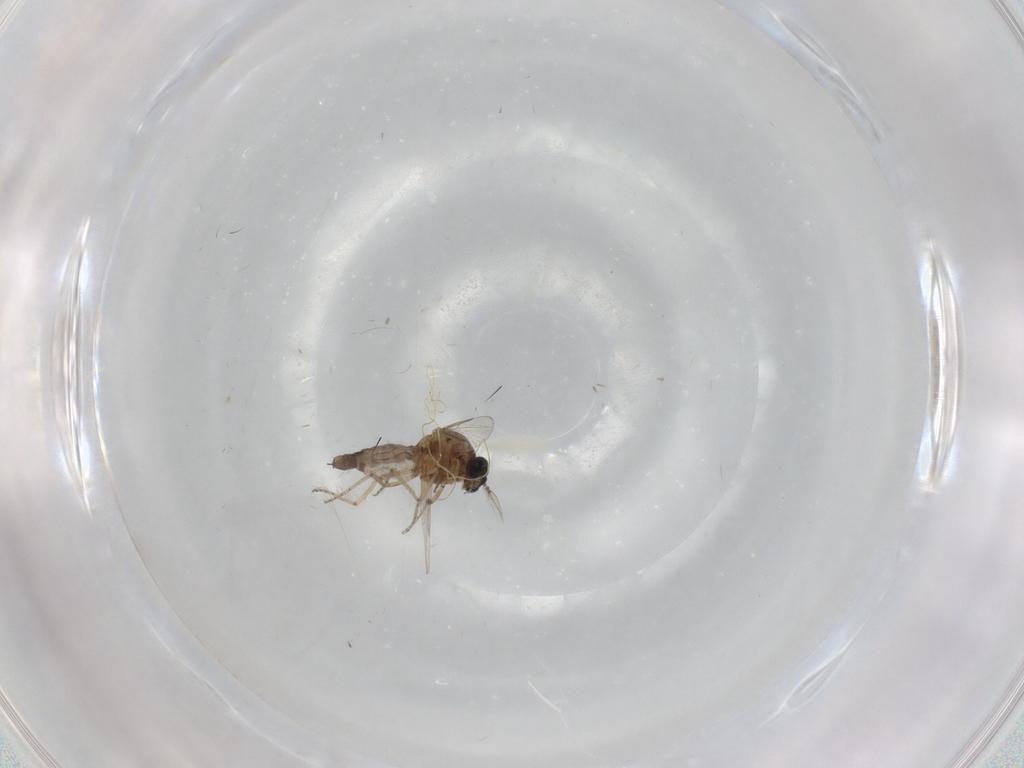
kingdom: Animalia
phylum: Arthropoda
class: Insecta
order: Diptera
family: Ceratopogonidae
